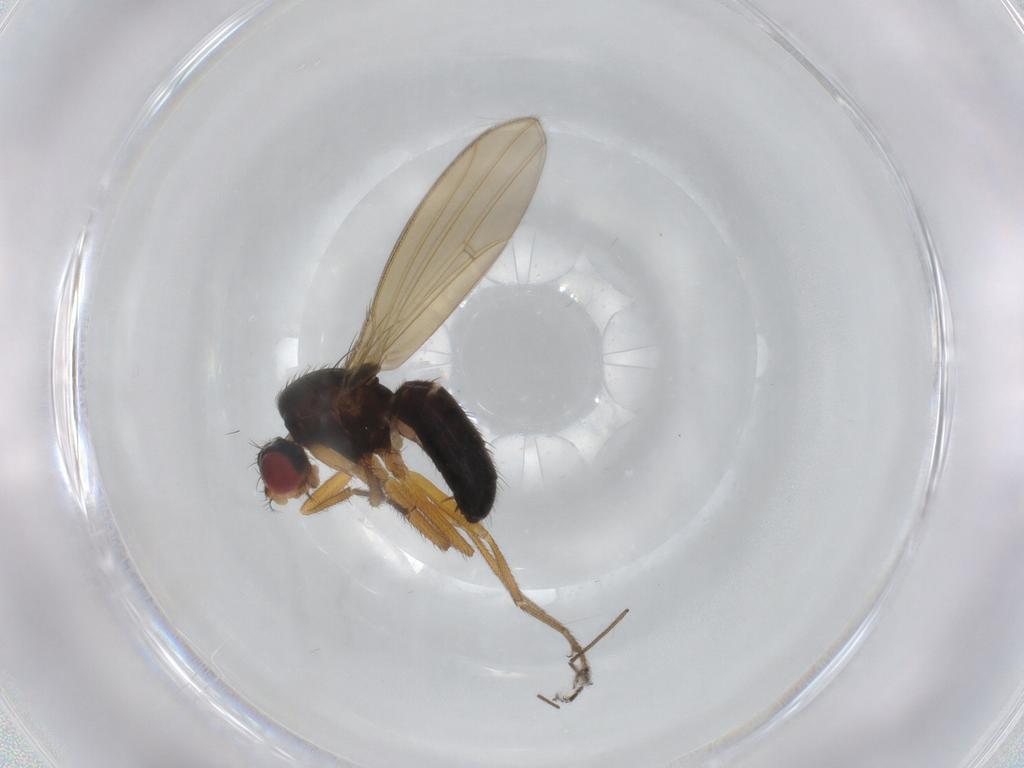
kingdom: Animalia
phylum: Arthropoda
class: Insecta
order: Diptera
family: Drosophilidae
